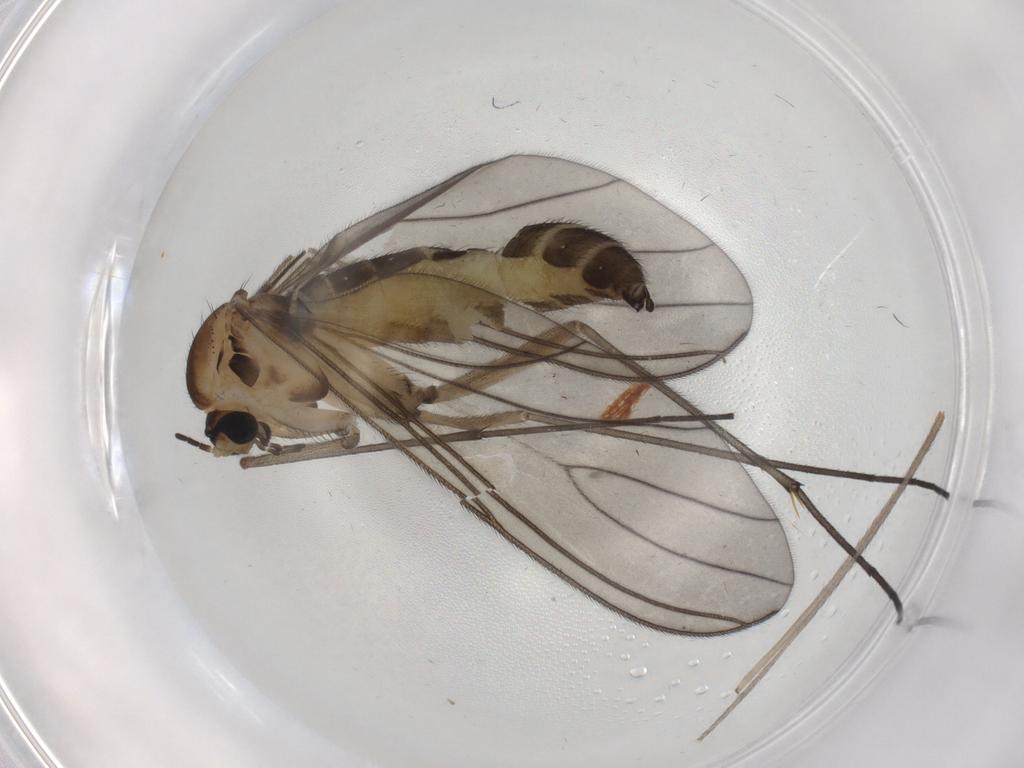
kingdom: Animalia
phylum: Arthropoda
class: Insecta
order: Diptera
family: Sciaridae
